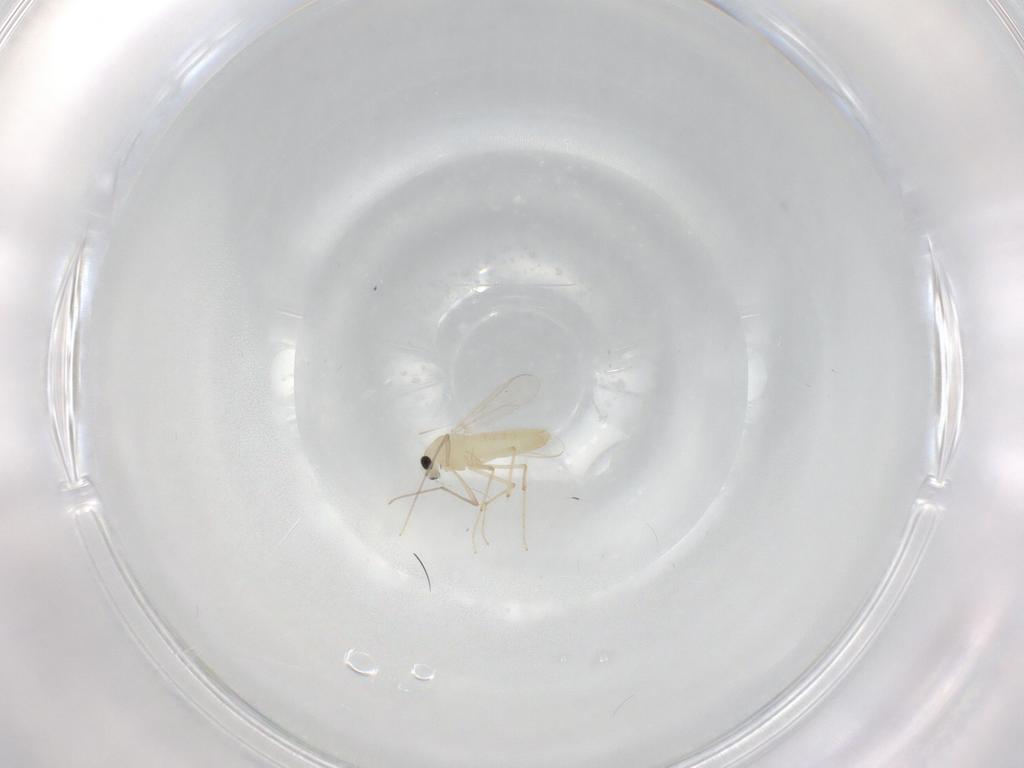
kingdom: Animalia
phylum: Arthropoda
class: Insecta
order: Diptera
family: Chironomidae
